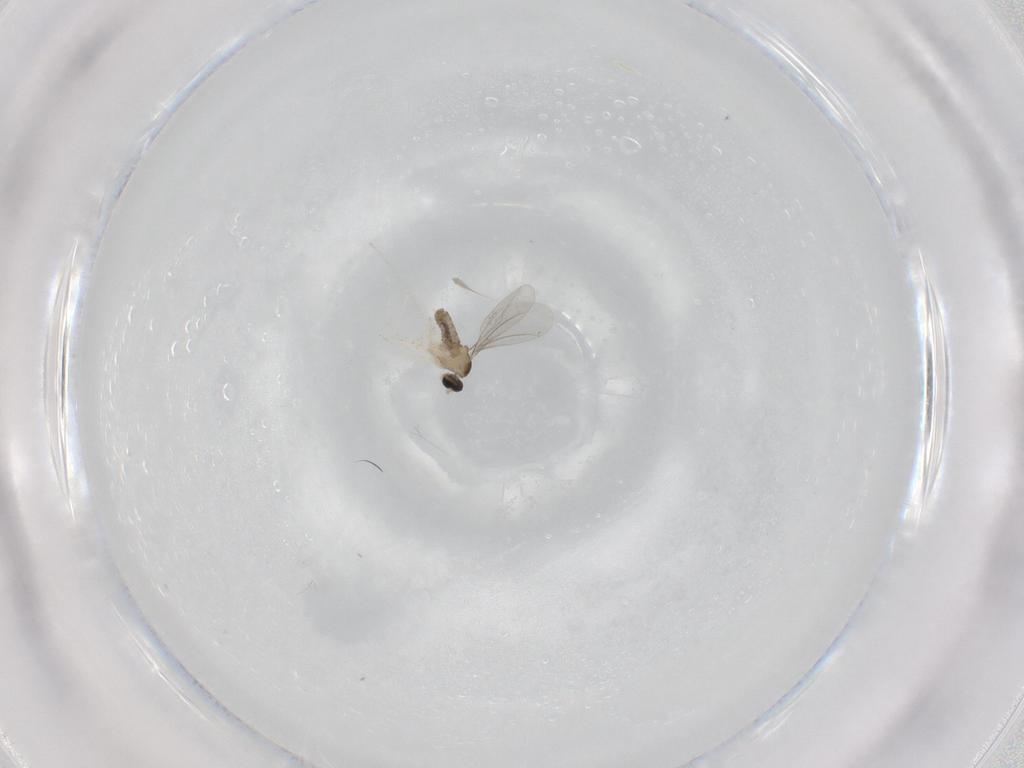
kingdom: Animalia
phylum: Arthropoda
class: Insecta
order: Diptera
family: Cecidomyiidae
